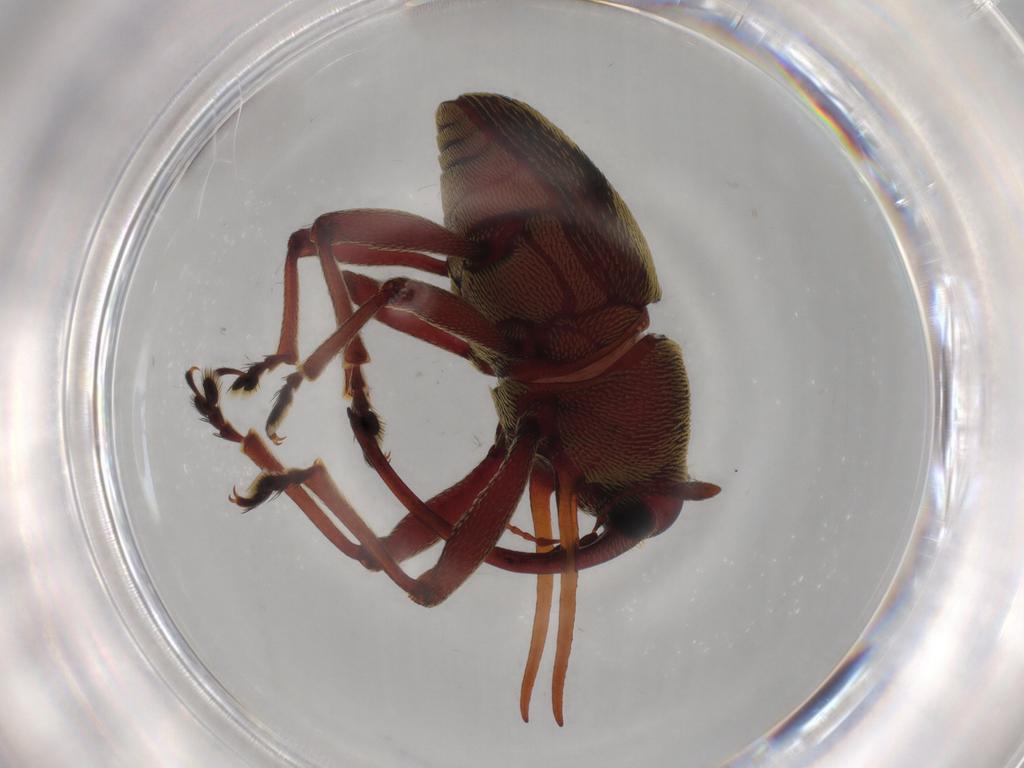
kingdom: Animalia
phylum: Arthropoda
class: Insecta
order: Coleoptera
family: Curculionidae
